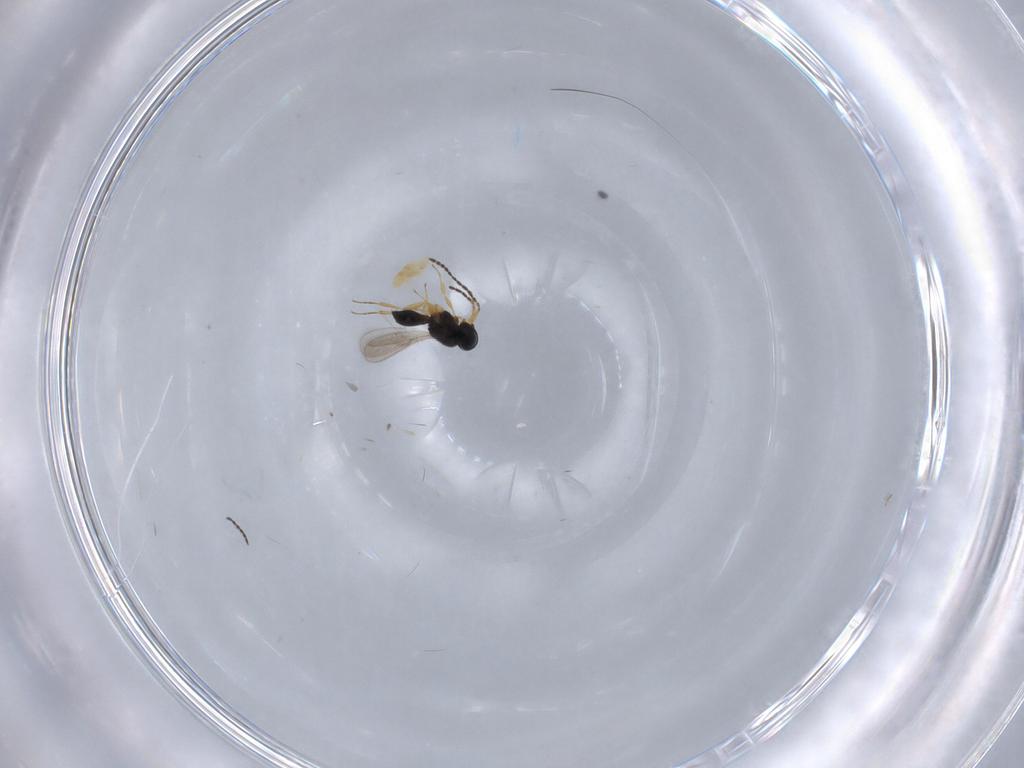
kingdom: Animalia
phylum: Arthropoda
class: Insecta
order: Hymenoptera
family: Scelionidae
